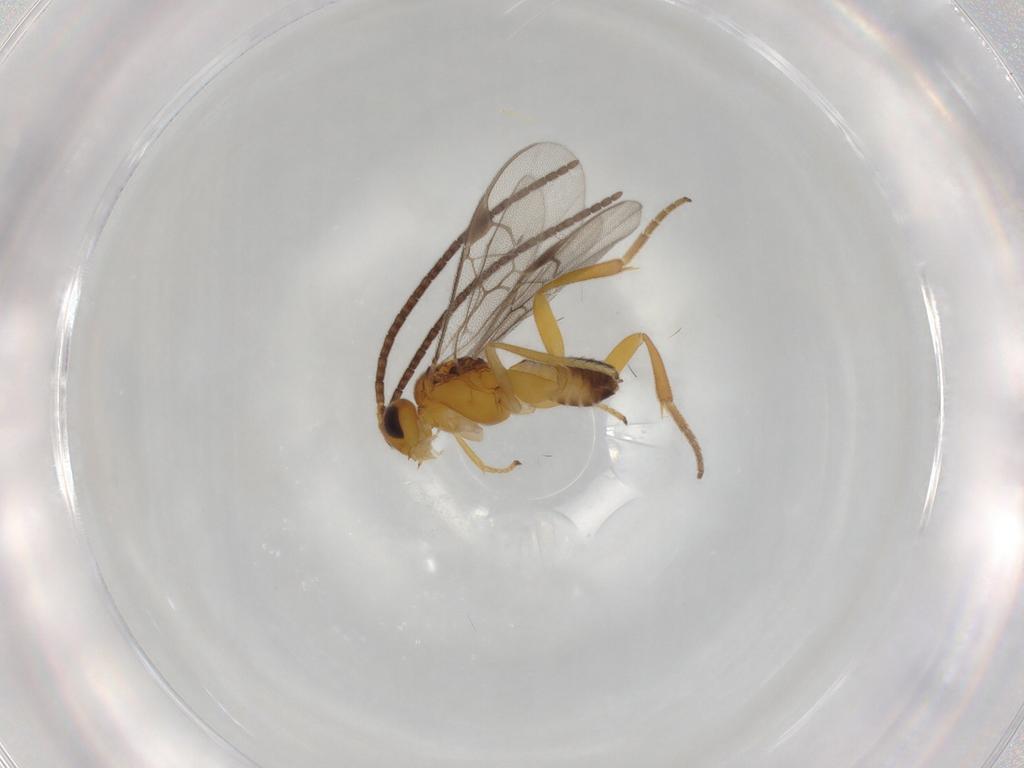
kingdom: Animalia
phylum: Arthropoda
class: Insecta
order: Hymenoptera
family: Braconidae
